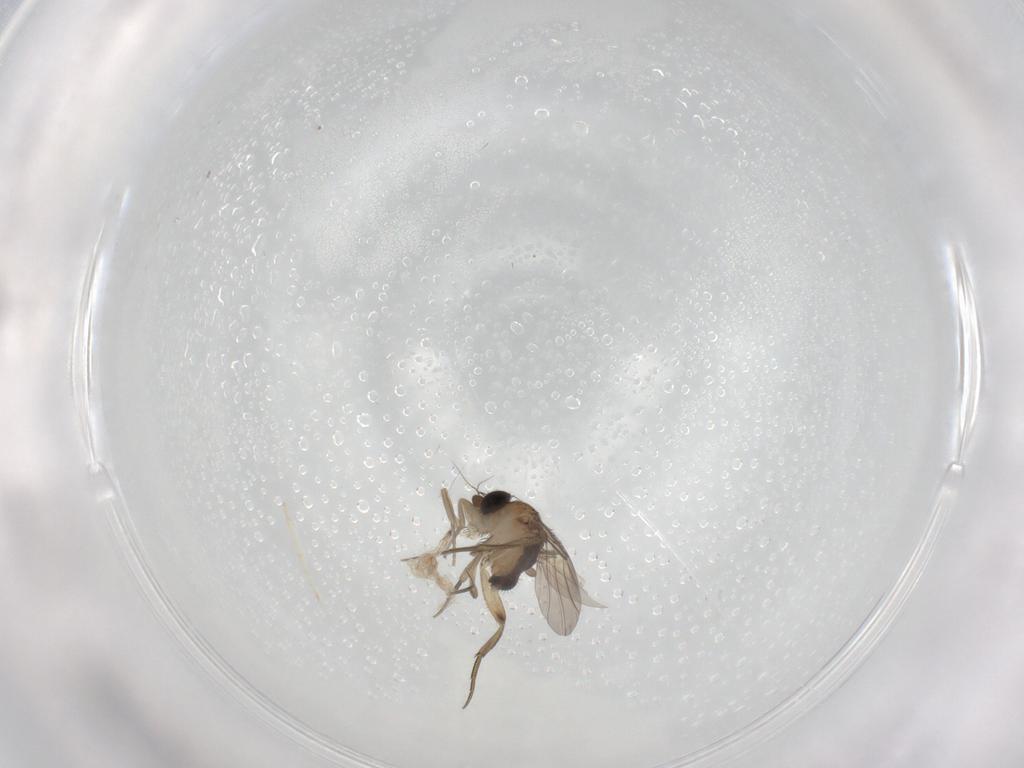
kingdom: Animalia
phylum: Arthropoda
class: Insecta
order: Diptera
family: Phoridae
